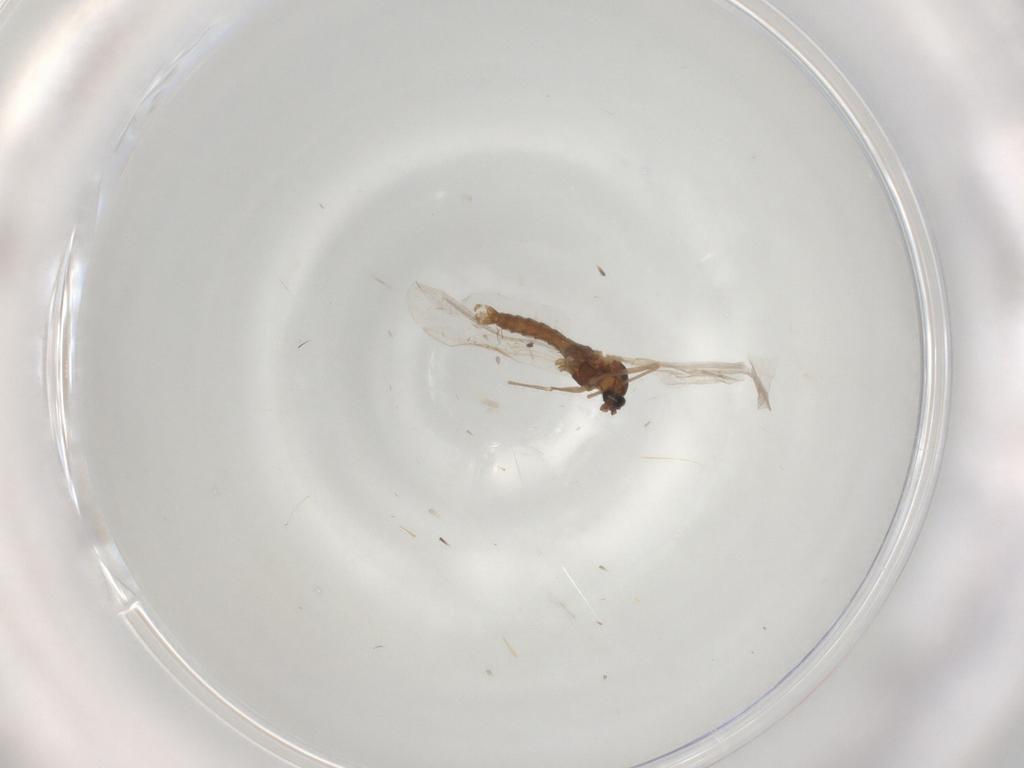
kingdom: Animalia
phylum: Arthropoda
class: Insecta
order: Diptera
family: Cecidomyiidae
